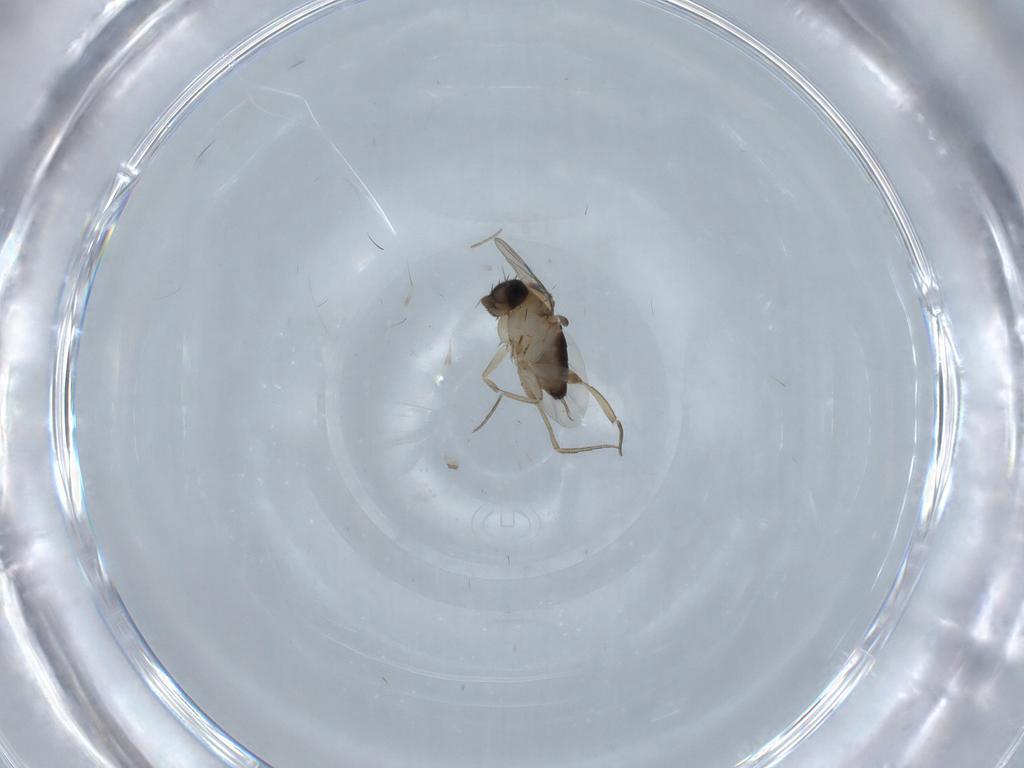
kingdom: Animalia
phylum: Arthropoda
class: Insecta
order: Diptera
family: Phoridae
